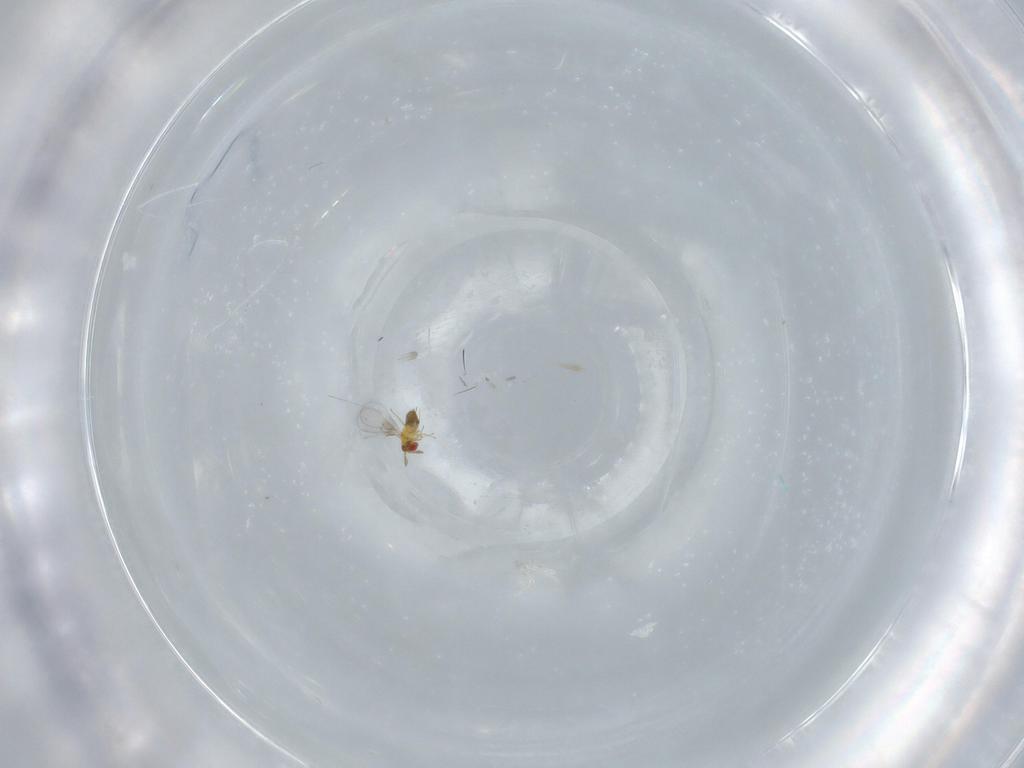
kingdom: Animalia
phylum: Arthropoda
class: Insecta
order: Hymenoptera
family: Trichogrammatidae
